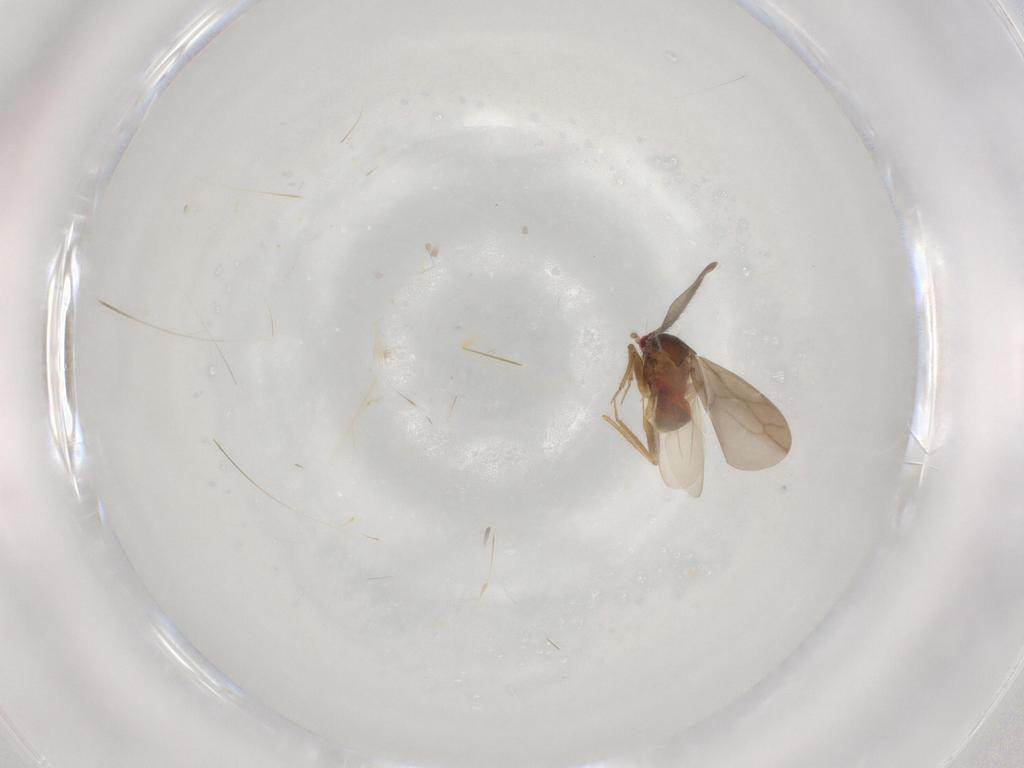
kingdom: Animalia
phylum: Arthropoda
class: Insecta
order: Hemiptera
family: Ceratocombidae
